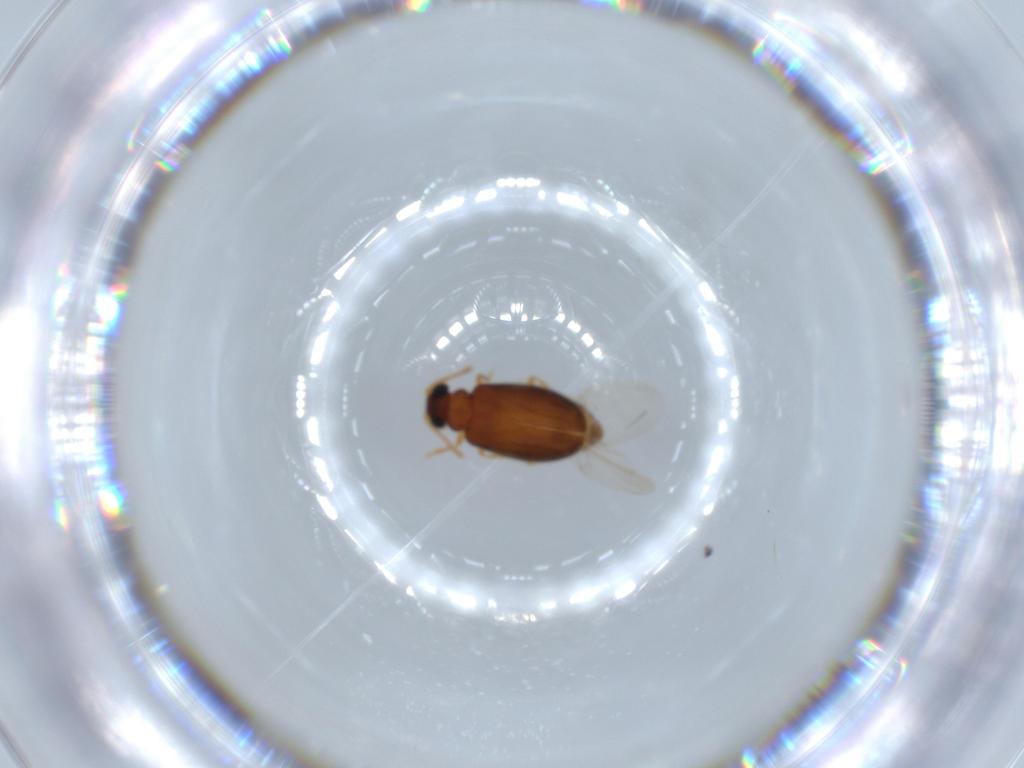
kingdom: Animalia
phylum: Arthropoda
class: Insecta
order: Coleoptera
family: Aderidae
